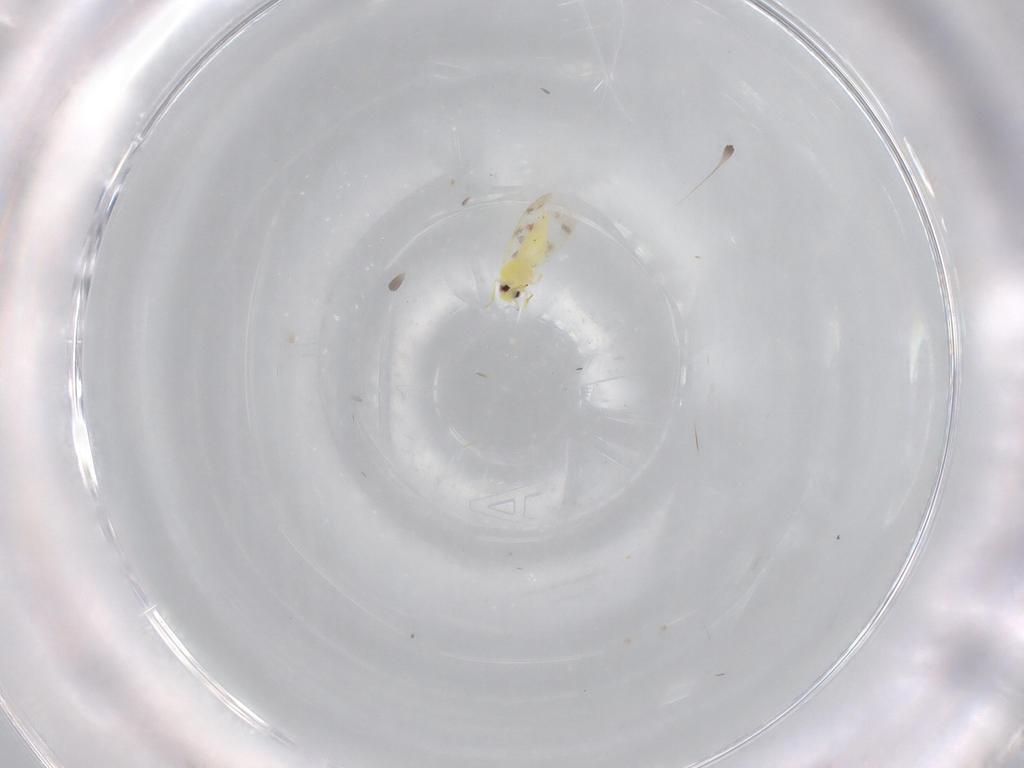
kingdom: Animalia
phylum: Arthropoda
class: Insecta
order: Hemiptera
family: Aleyrodidae
